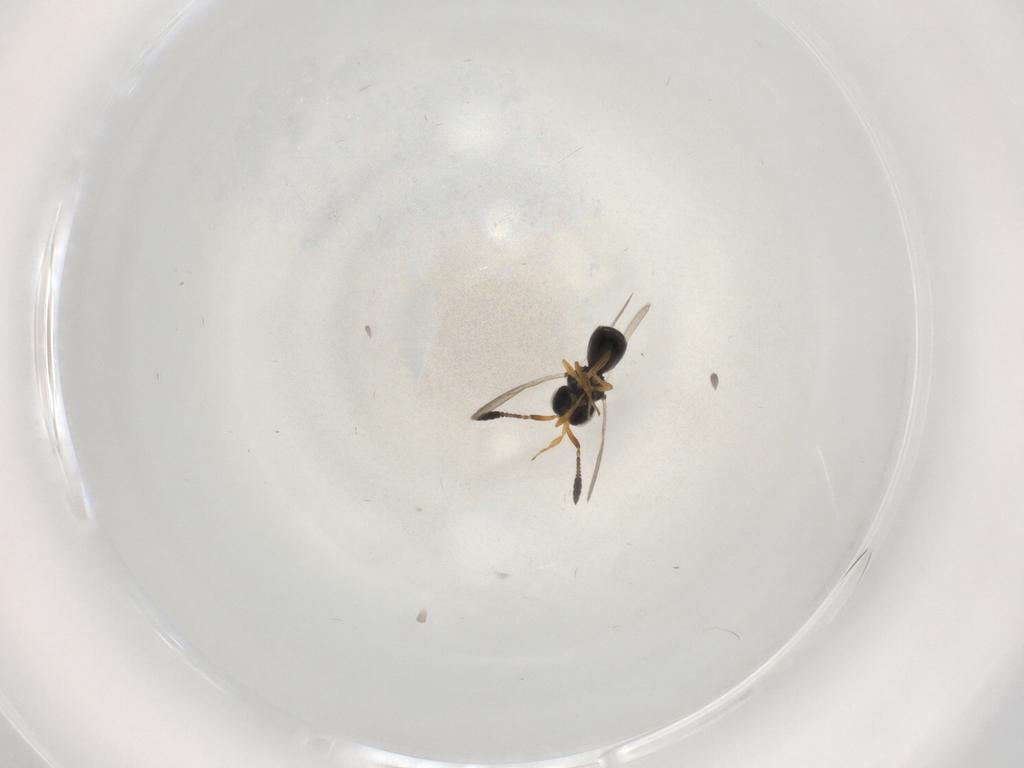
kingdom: Animalia
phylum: Arthropoda
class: Insecta
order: Hymenoptera
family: Scelionidae
